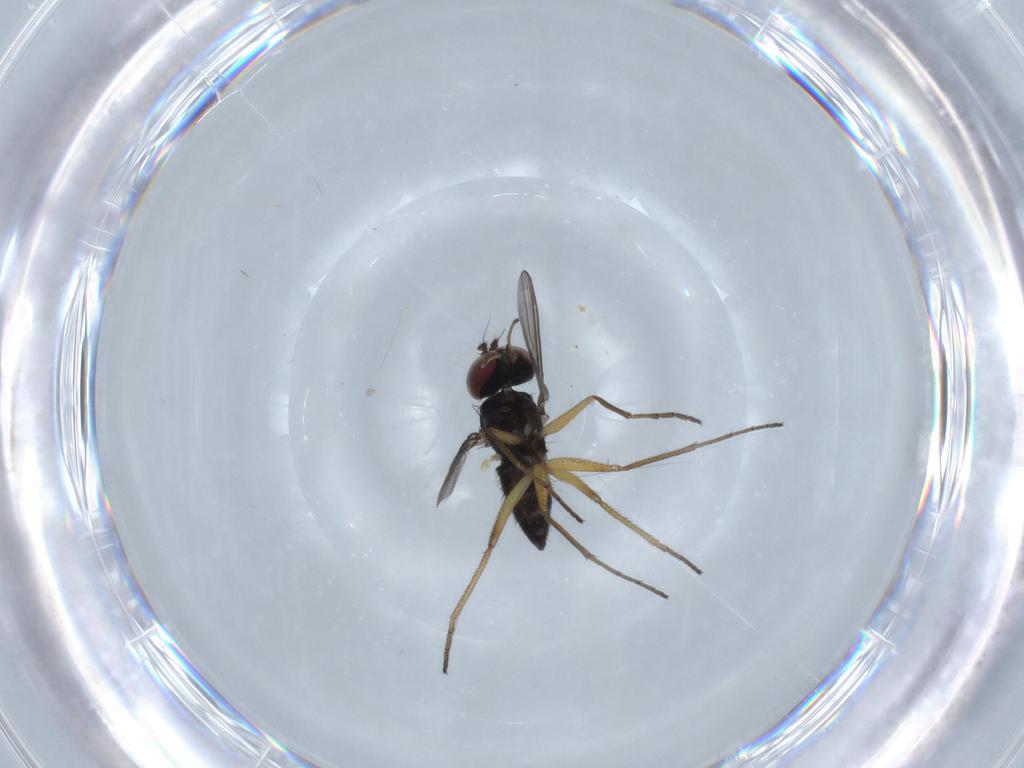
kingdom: Animalia
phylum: Arthropoda
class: Insecta
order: Diptera
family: Dolichopodidae
